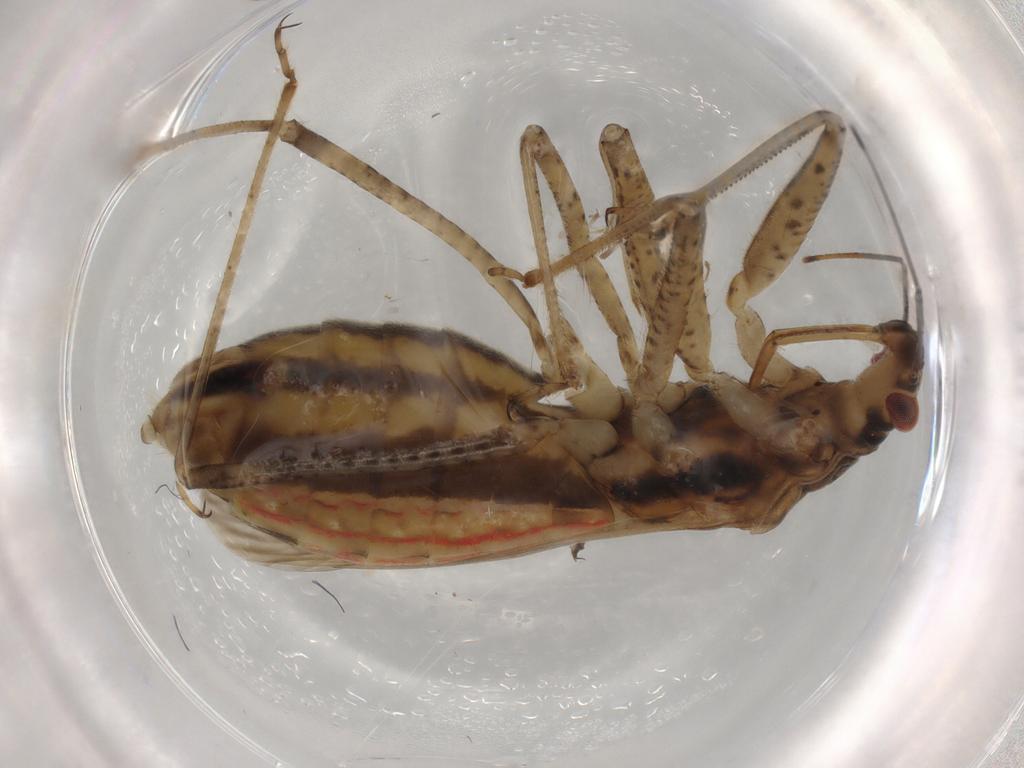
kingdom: Animalia
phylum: Arthropoda
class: Insecta
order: Hemiptera
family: Nabidae
